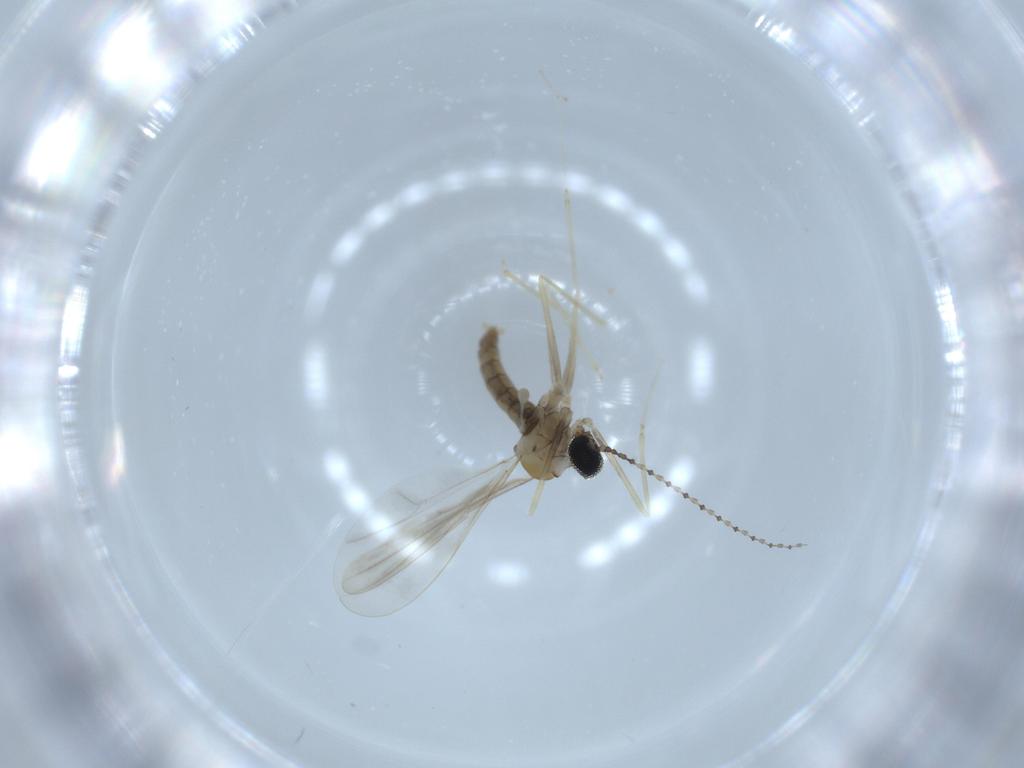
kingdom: Animalia
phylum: Arthropoda
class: Insecta
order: Diptera
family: Cecidomyiidae
